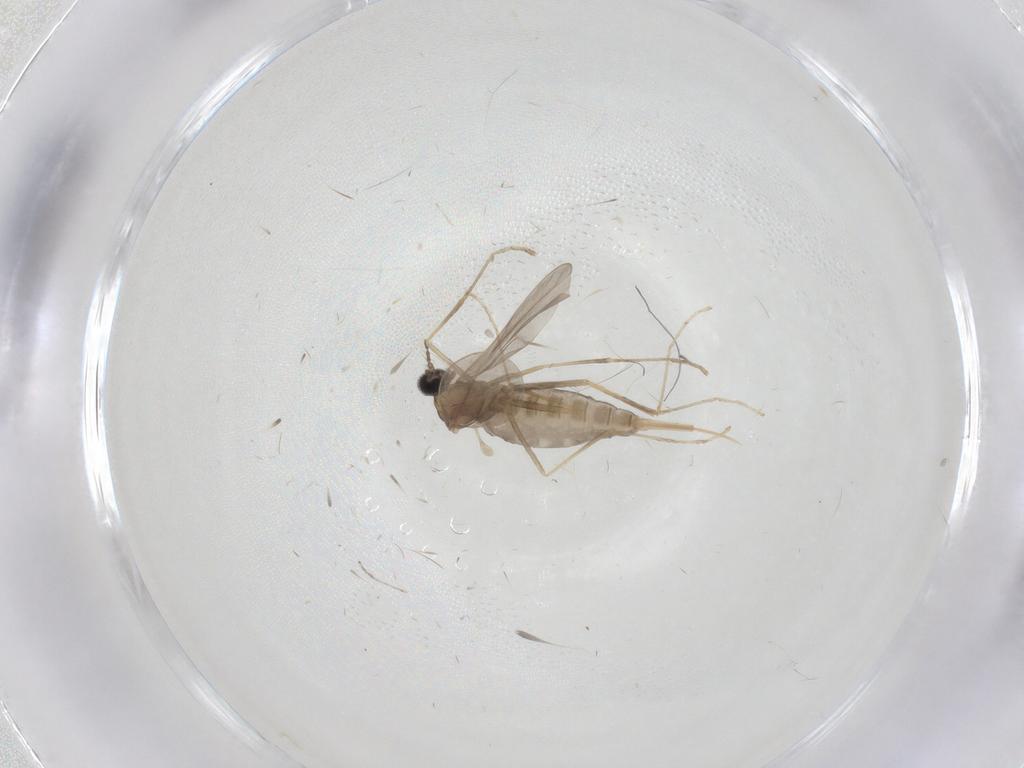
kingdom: Animalia
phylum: Arthropoda
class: Insecta
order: Diptera
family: Cecidomyiidae
